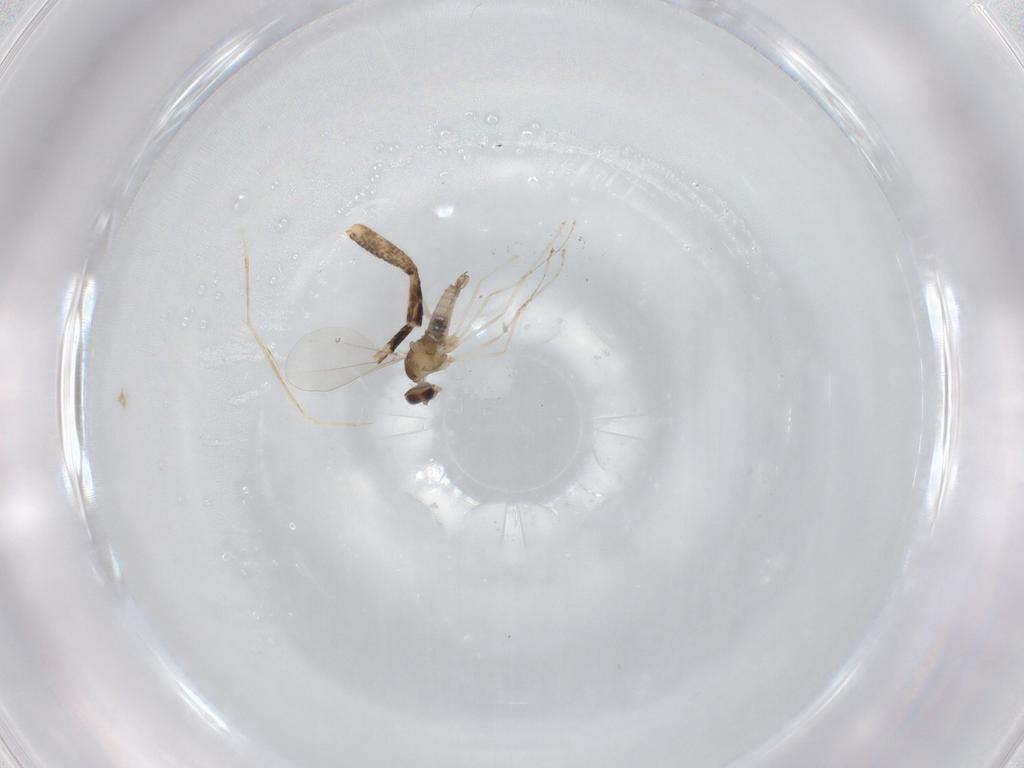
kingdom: Animalia
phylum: Arthropoda
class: Insecta
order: Diptera
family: Cecidomyiidae
